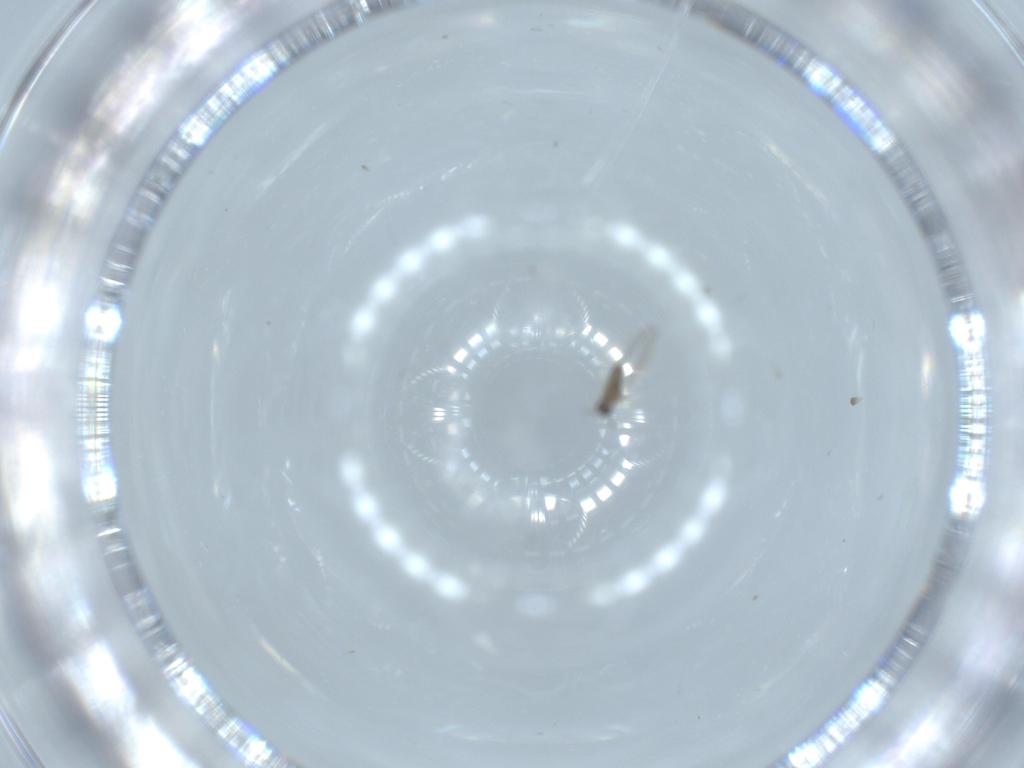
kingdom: Animalia
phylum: Arthropoda
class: Insecta
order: Diptera
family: Cecidomyiidae
